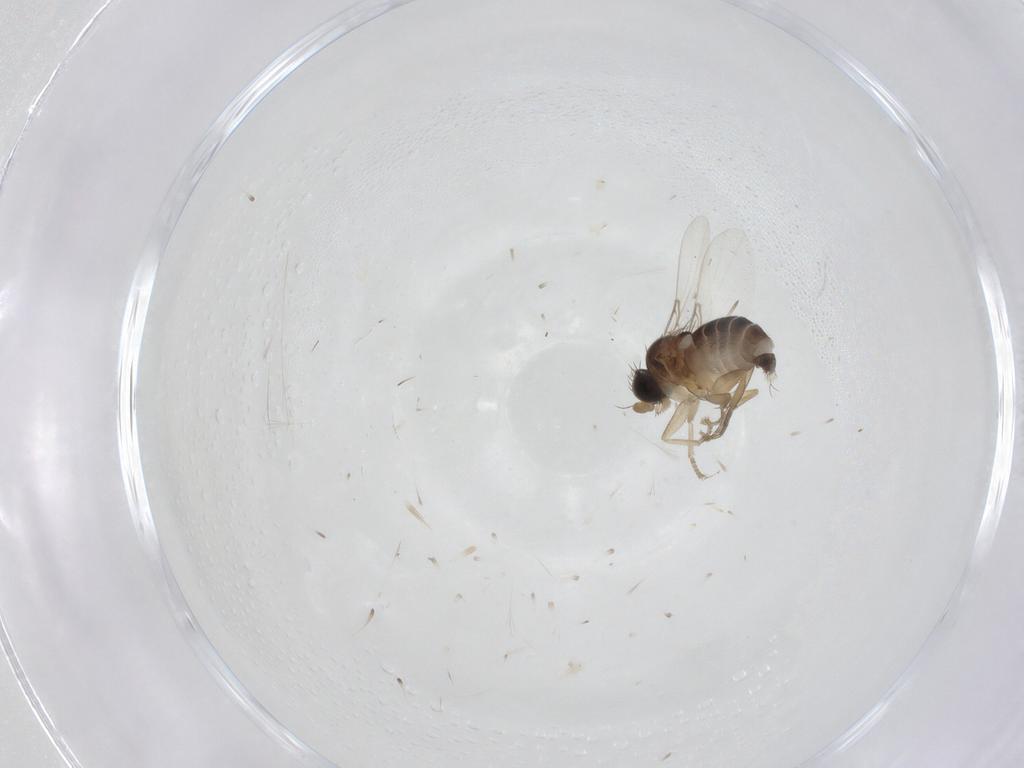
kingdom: Animalia
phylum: Arthropoda
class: Insecta
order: Diptera
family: Phoridae
